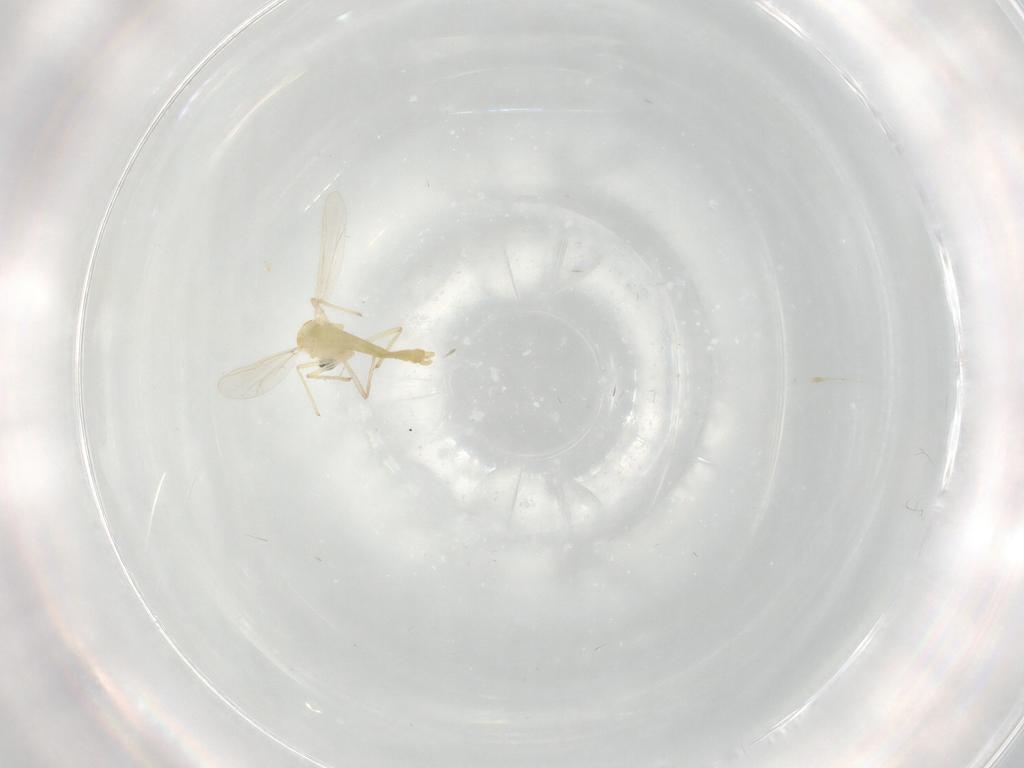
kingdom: Animalia
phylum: Arthropoda
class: Insecta
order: Diptera
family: Chironomidae
